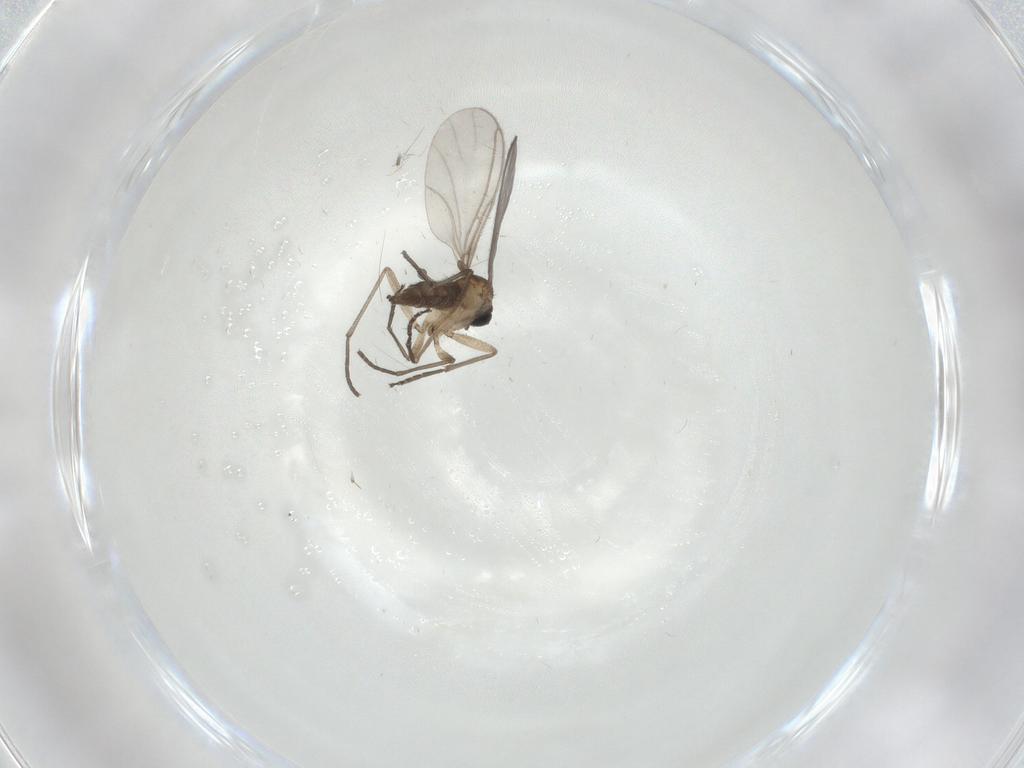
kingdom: Animalia
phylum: Arthropoda
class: Insecta
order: Diptera
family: Sciaridae
